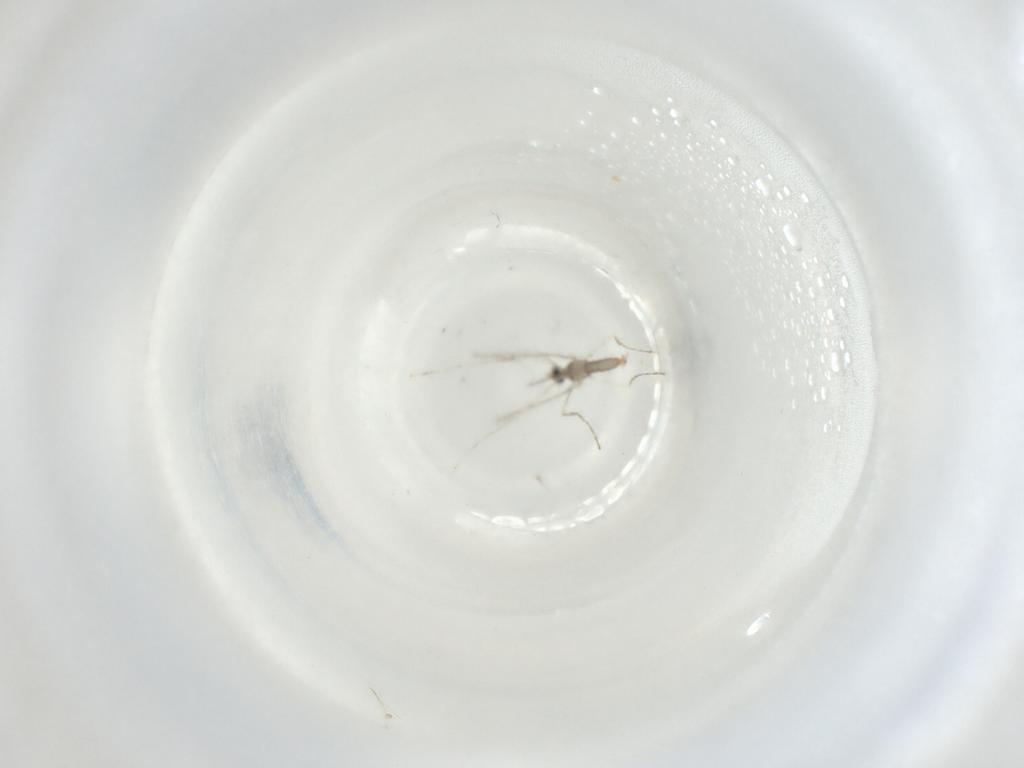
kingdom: Animalia
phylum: Arthropoda
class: Insecta
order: Diptera
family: Cecidomyiidae
